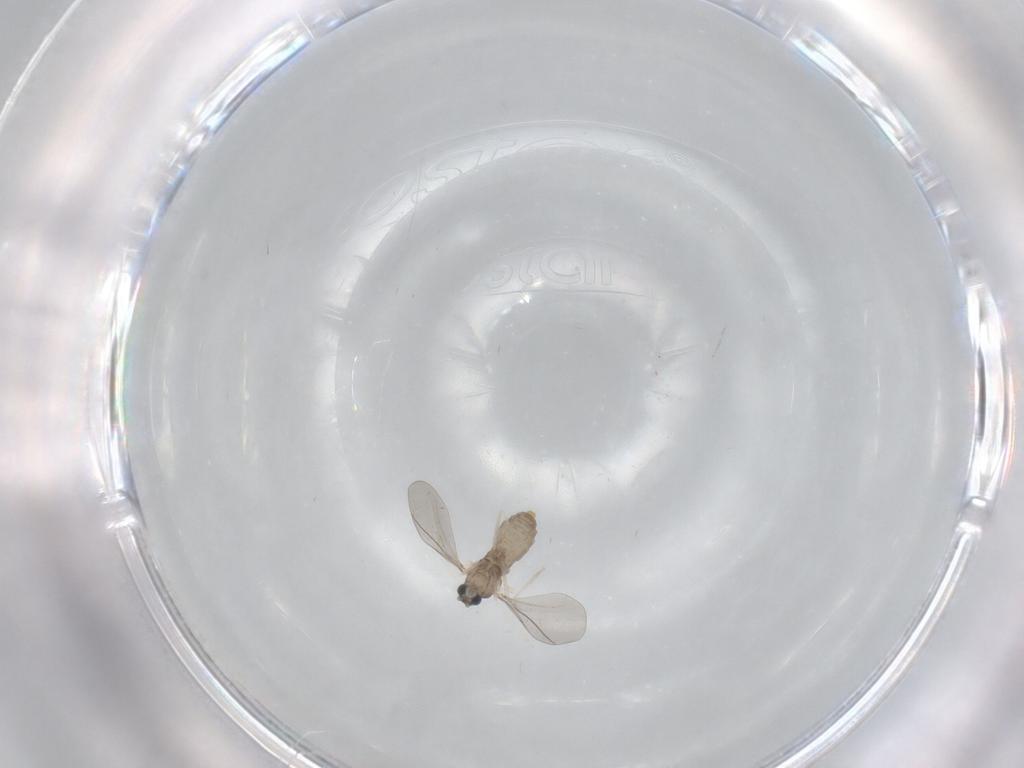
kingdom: Animalia
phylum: Arthropoda
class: Insecta
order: Diptera
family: Cecidomyiidae
